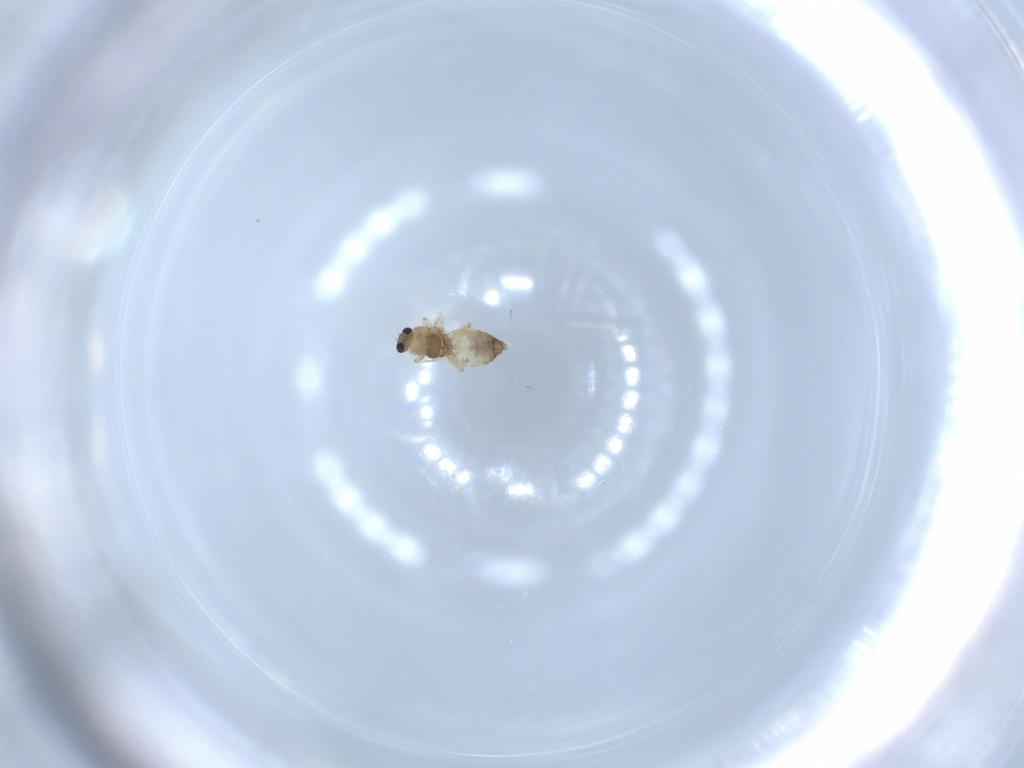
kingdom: Animalia
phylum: Arthropoda
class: Insecta
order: Diptera
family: Chironomidae
